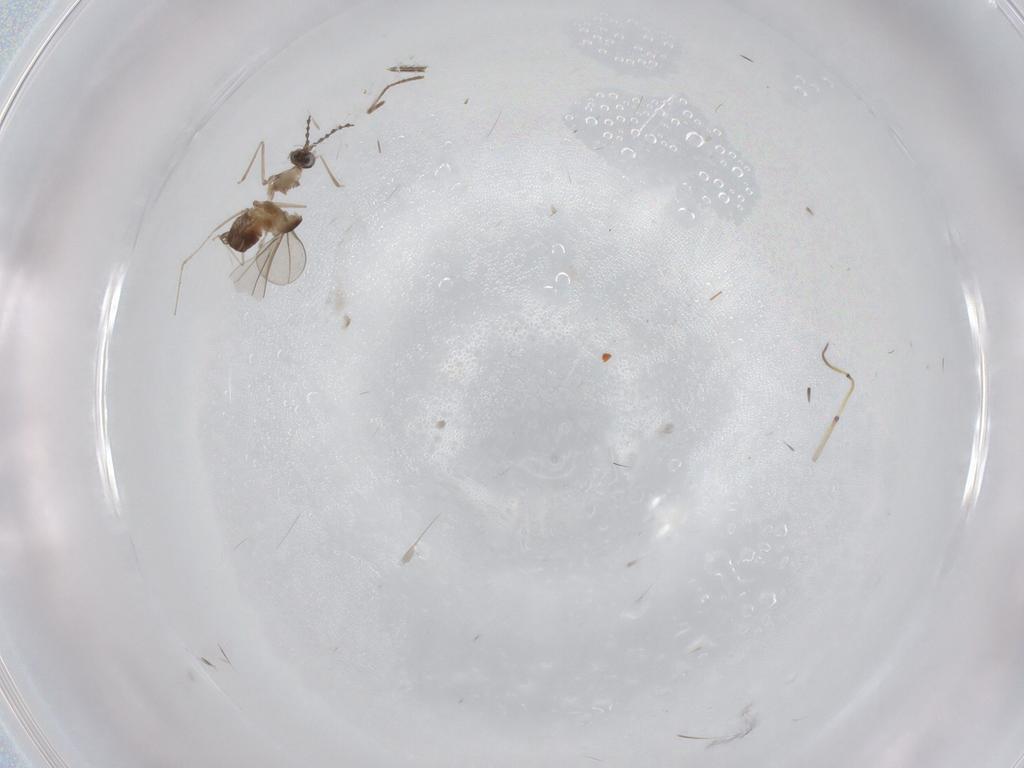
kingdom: Animalia
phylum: Arthropoda
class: Insecta
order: Diptera
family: Cecidomyiidae
